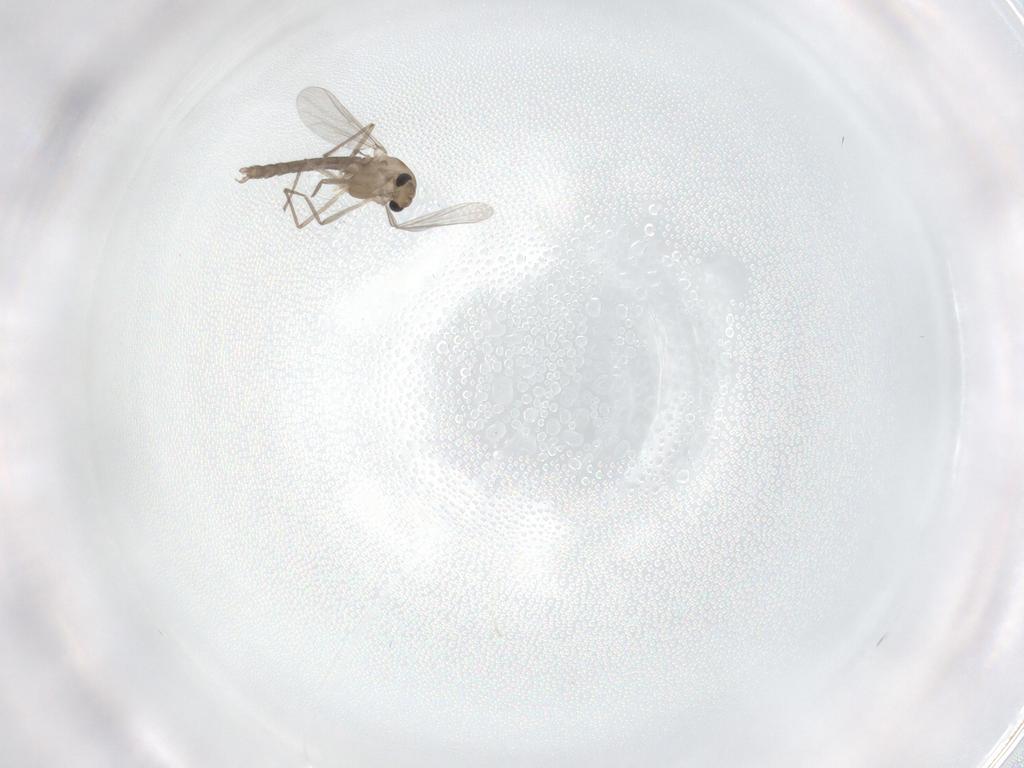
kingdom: Animalia
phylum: Arthropoda
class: Insecta
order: Diptera
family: Chironomidae
